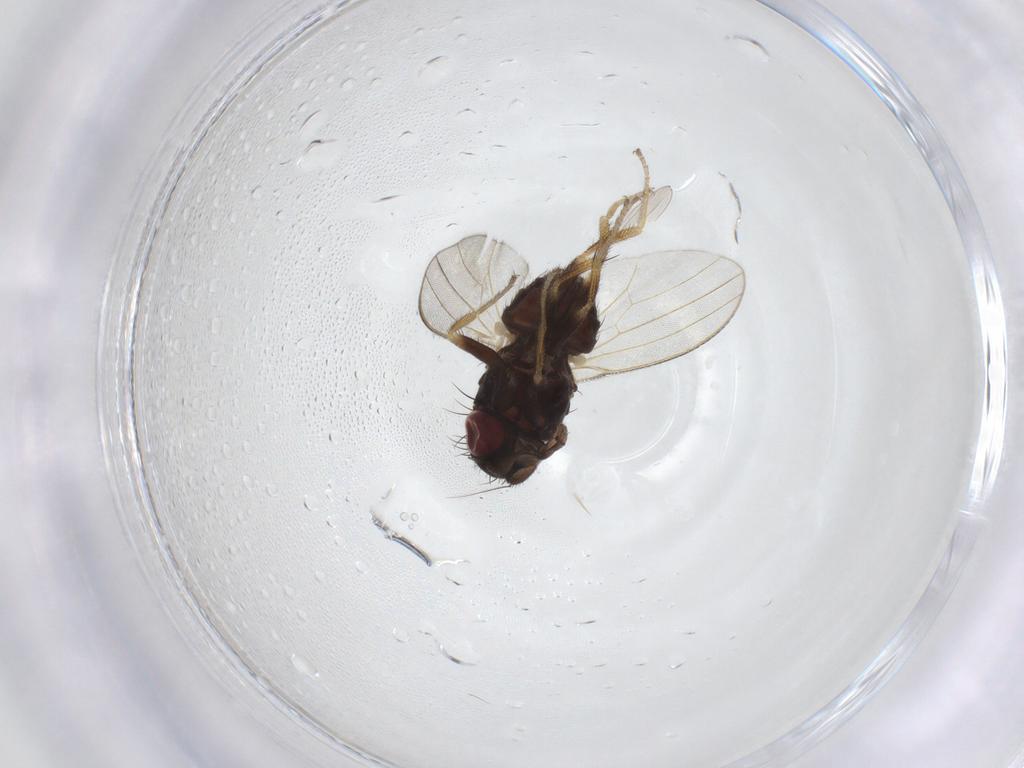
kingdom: Animalia
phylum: Arthropoda
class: Insecta
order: Diptera
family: Milichiidae
